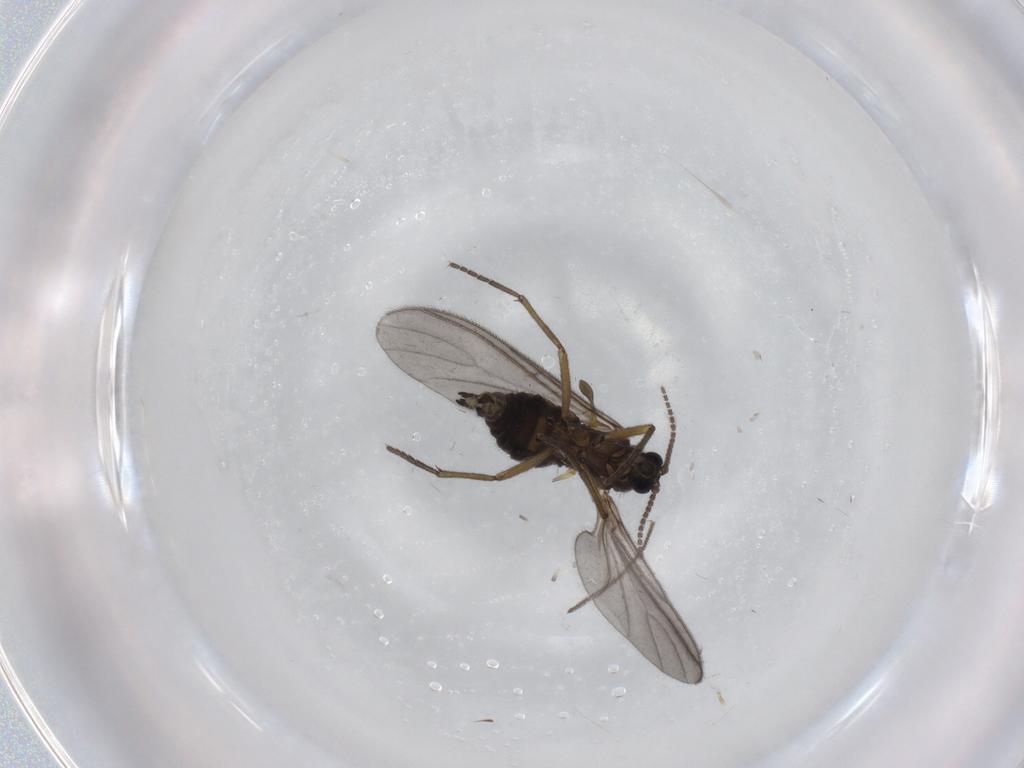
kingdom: Animalia
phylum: Arthropoda
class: Insecta
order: Diptera
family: Sciaridae
